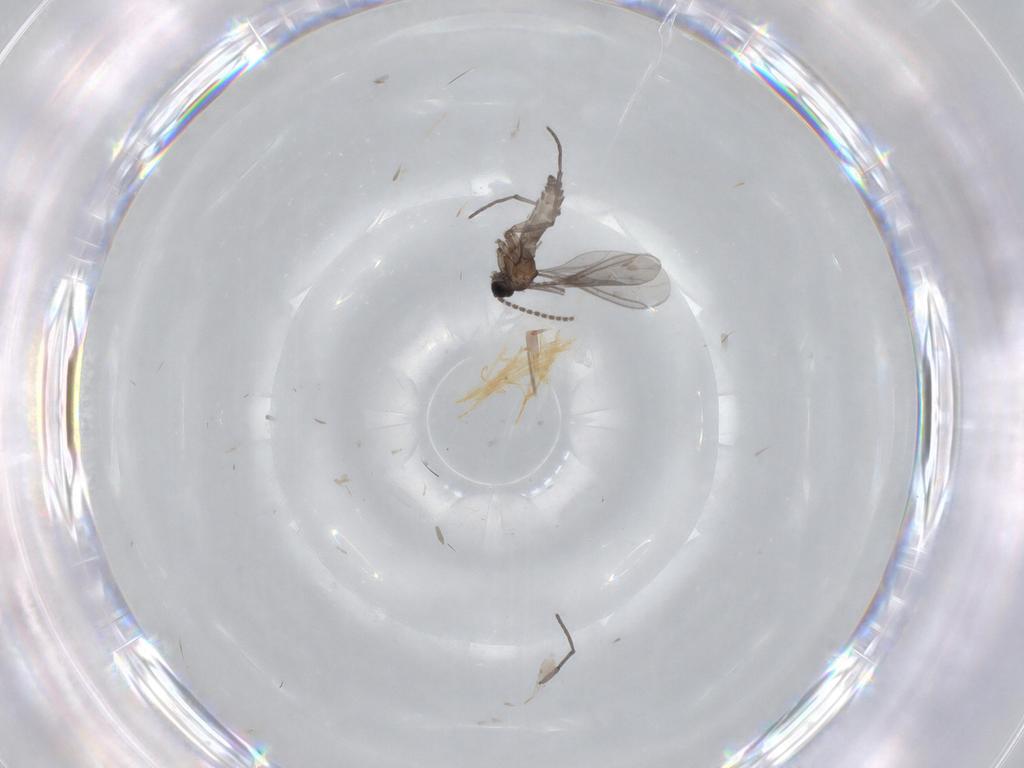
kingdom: Animalia
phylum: Arthropoda
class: Insecta
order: Diptera
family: Sciaridae
